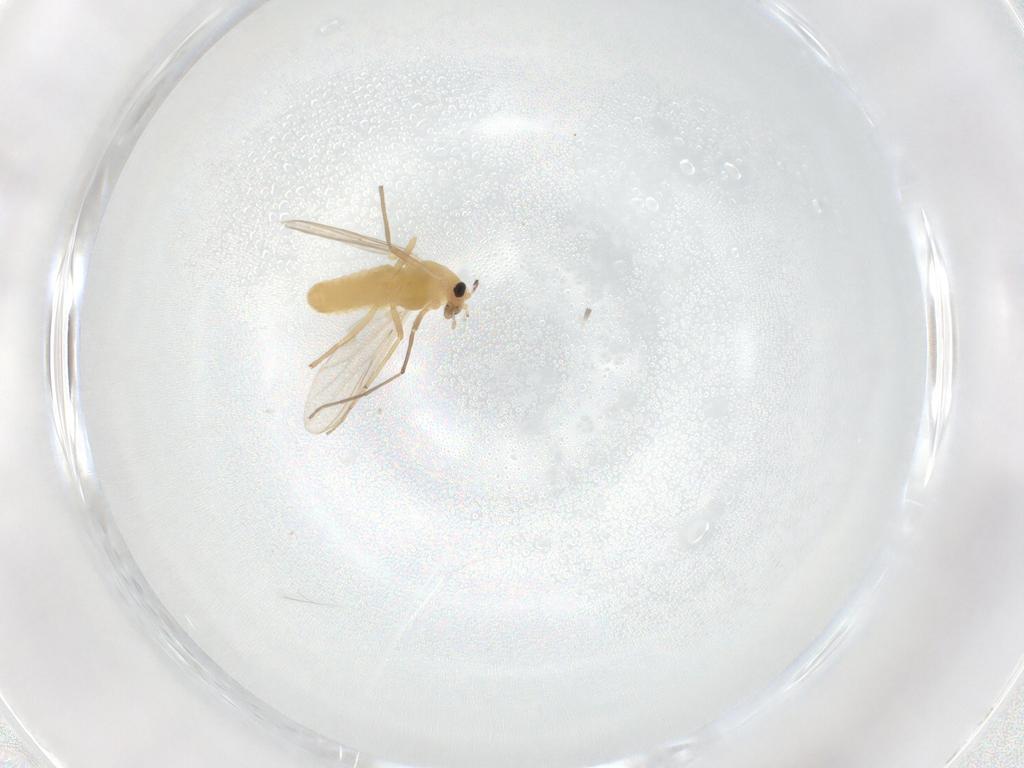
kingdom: Animalia
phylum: Arthropoda
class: Insecta
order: Diptera
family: Chironomidae
